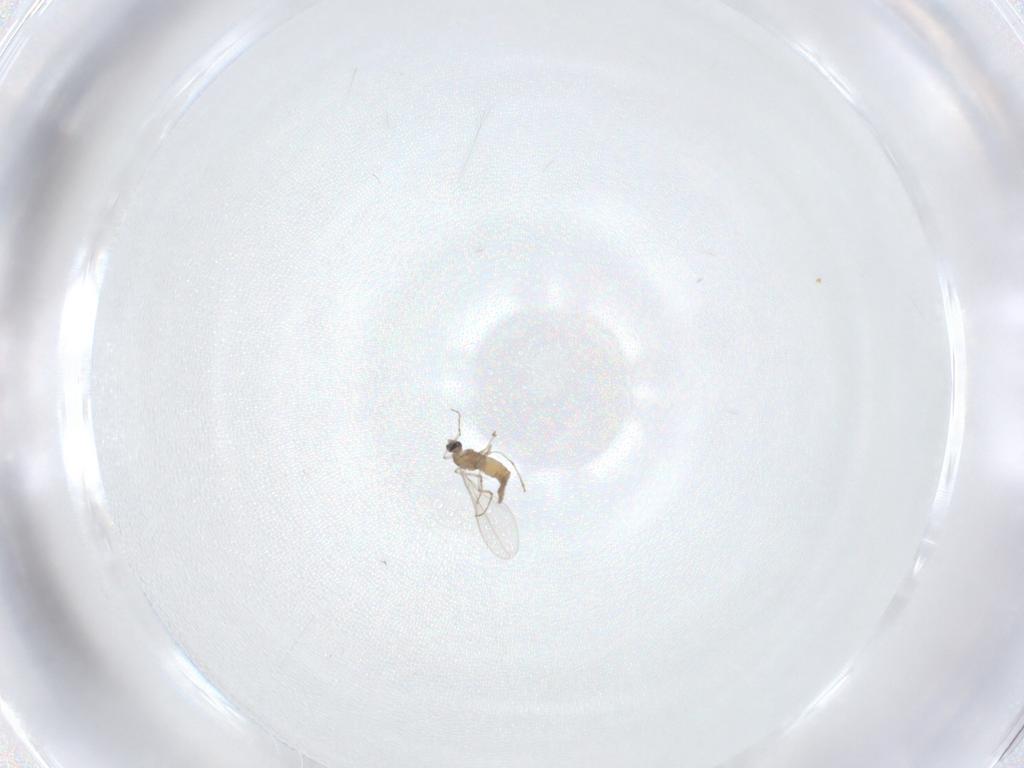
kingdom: Animalia
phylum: Arthropoda
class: Insecta
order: Diptera
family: Cecidomyiidae
